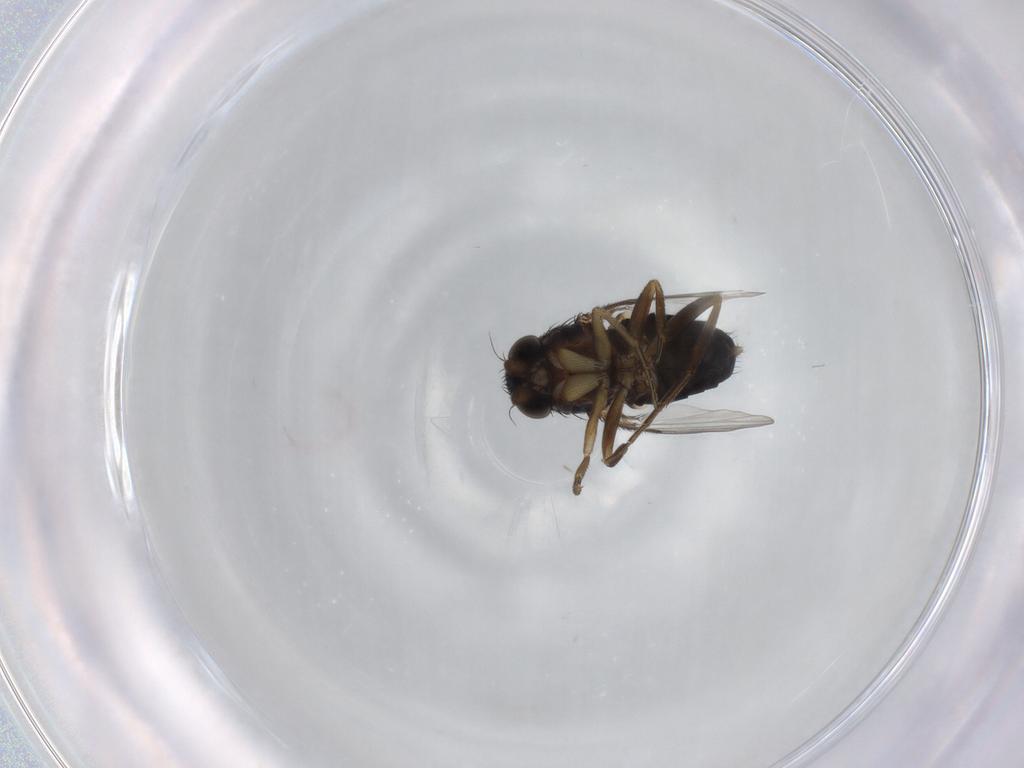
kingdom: Animalia
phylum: Arthropoda
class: Insecta
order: Diptera
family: Phoridae
